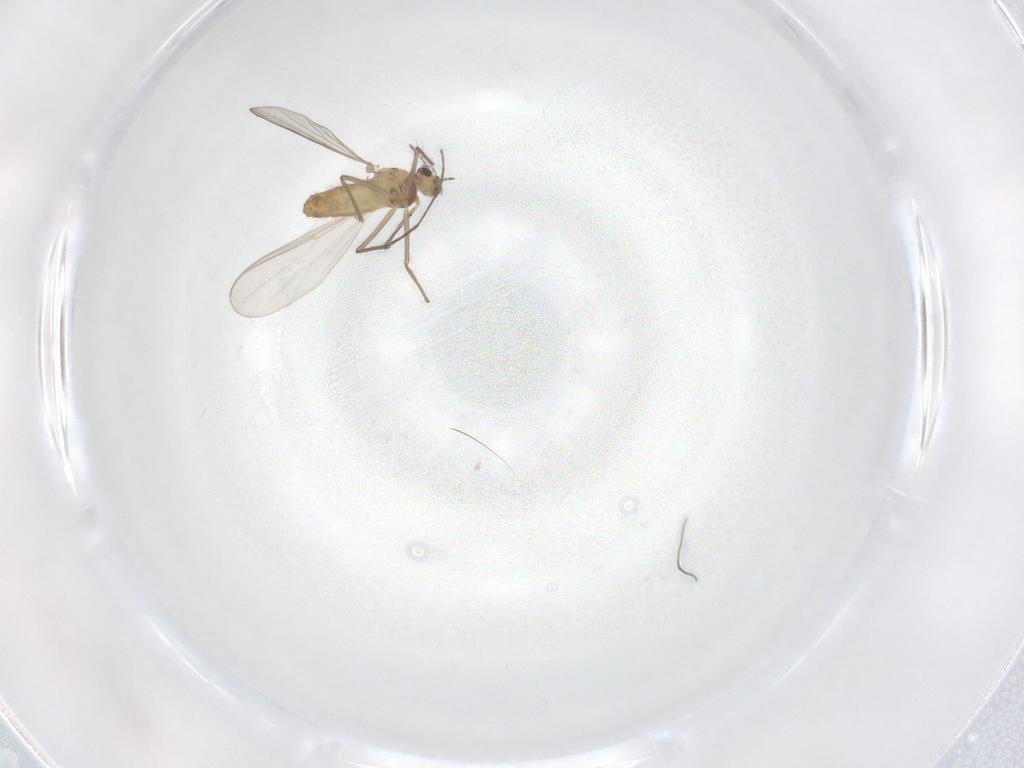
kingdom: Animalia
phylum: Arthropoda
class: Insecta
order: Diptera
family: Chironomidae
